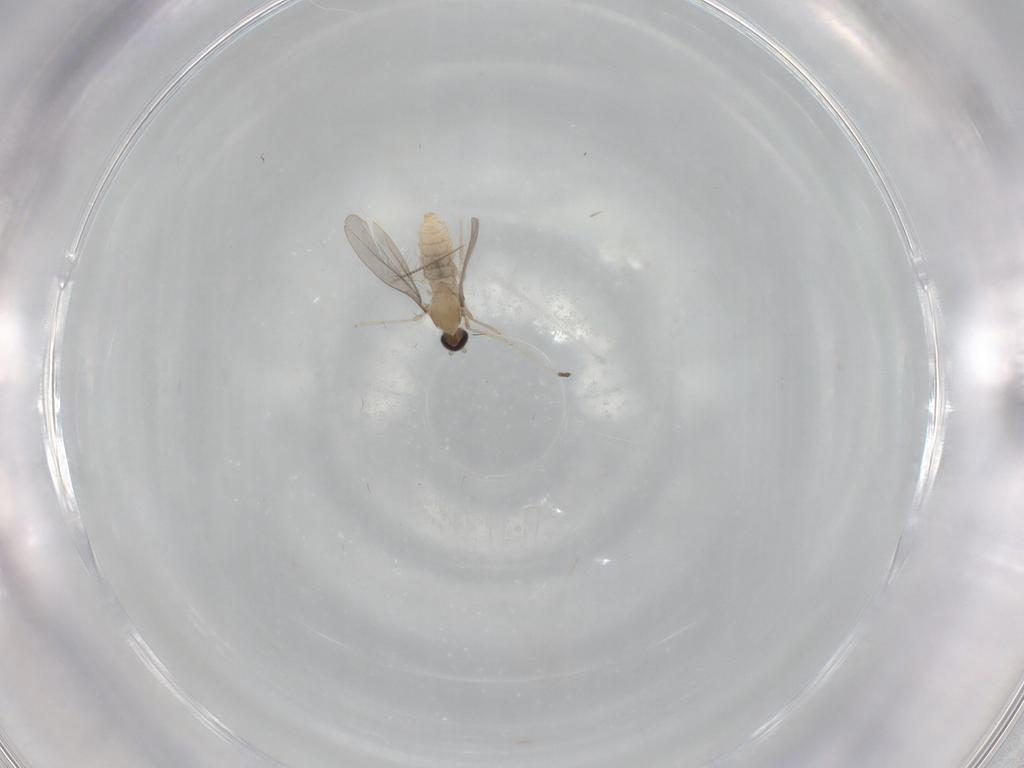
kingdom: Animalia
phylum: Arthropoda
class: Insecta
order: Diptera
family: Cecidomyiidae
